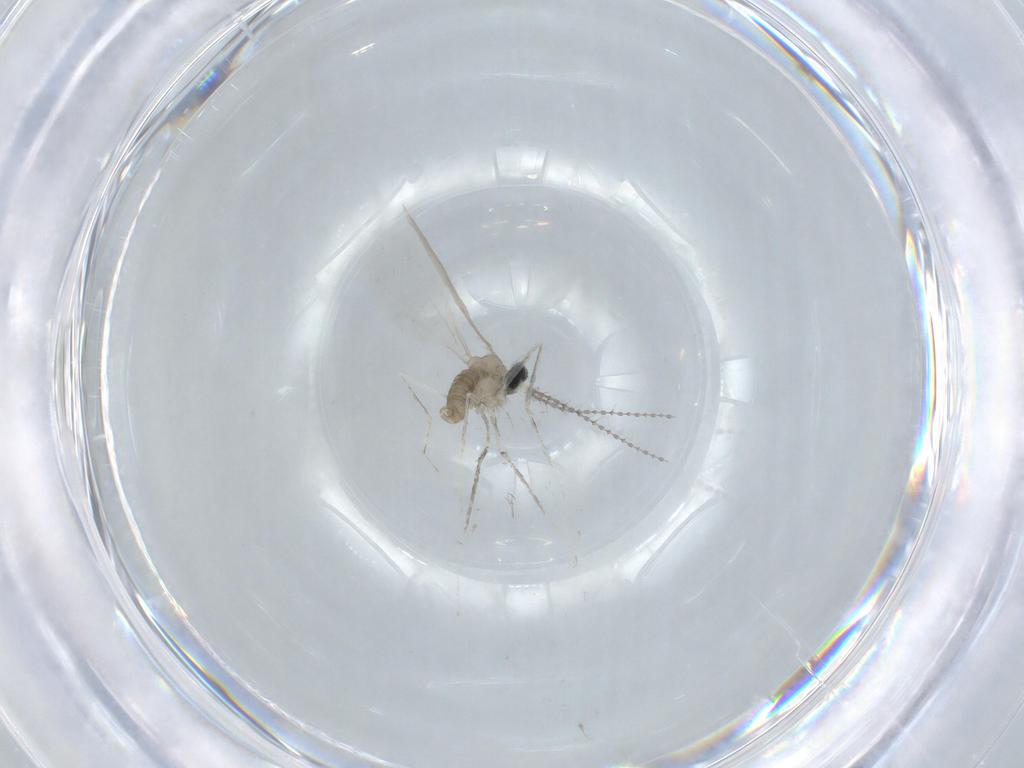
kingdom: Animalia
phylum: Arthropoda
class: Insecta
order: Diptera
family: Cecidomyiidae
